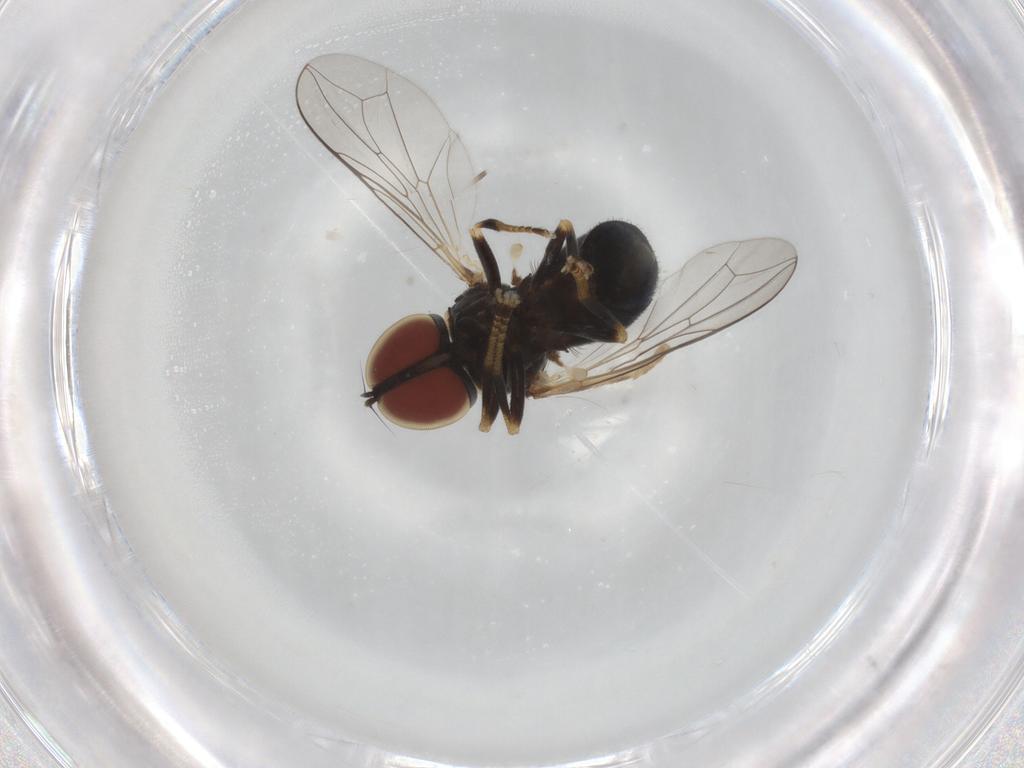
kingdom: Animalia
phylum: Arthropoda
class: Insecta
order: Diptera
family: Pipunculidae
